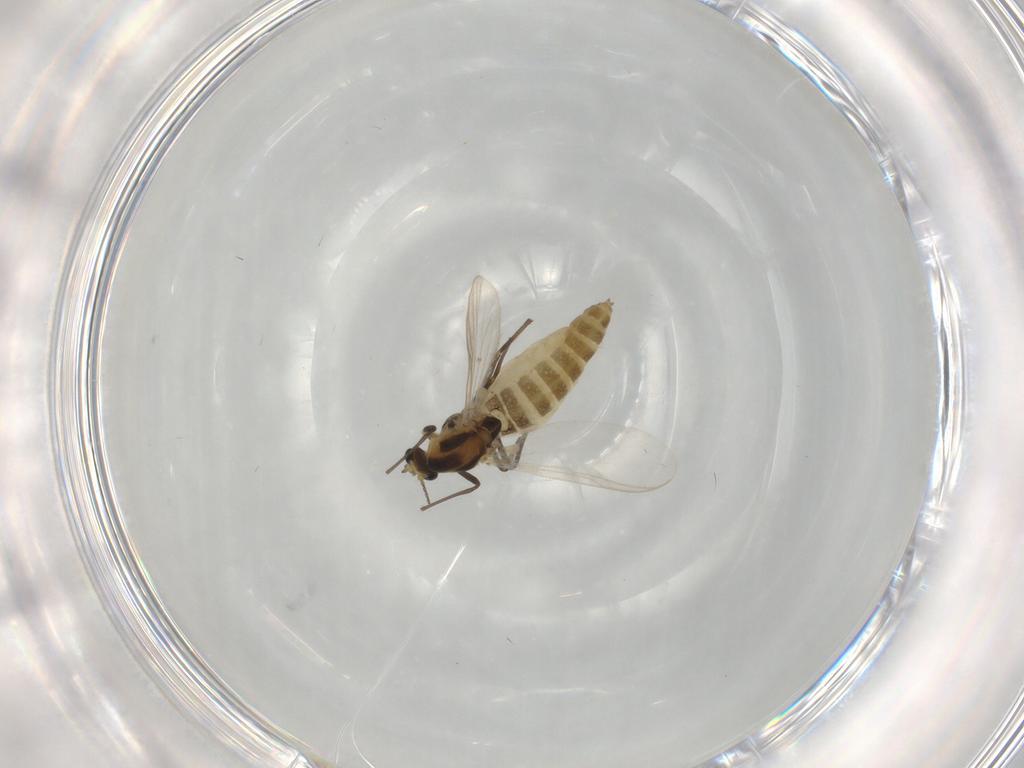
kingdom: Animalia
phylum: Arthropoda
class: Insecta
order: Diptera
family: Chironomidae
